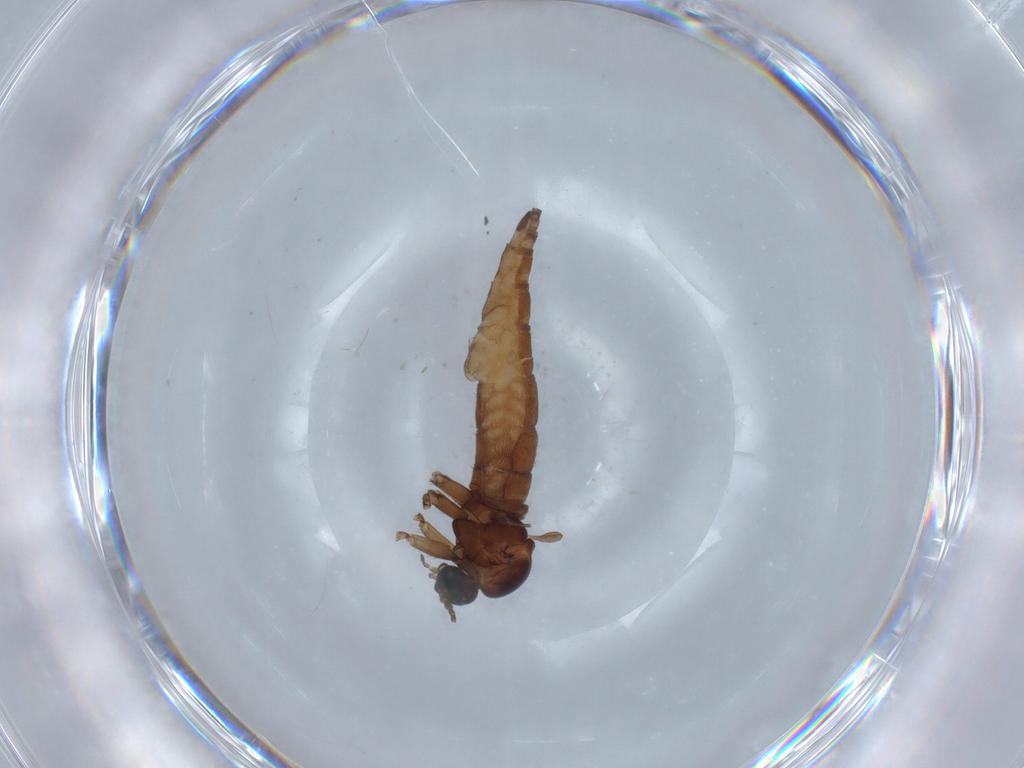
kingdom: Animalia
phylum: Arthropoda
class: Insecta
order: Diptera
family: Sciaridae
